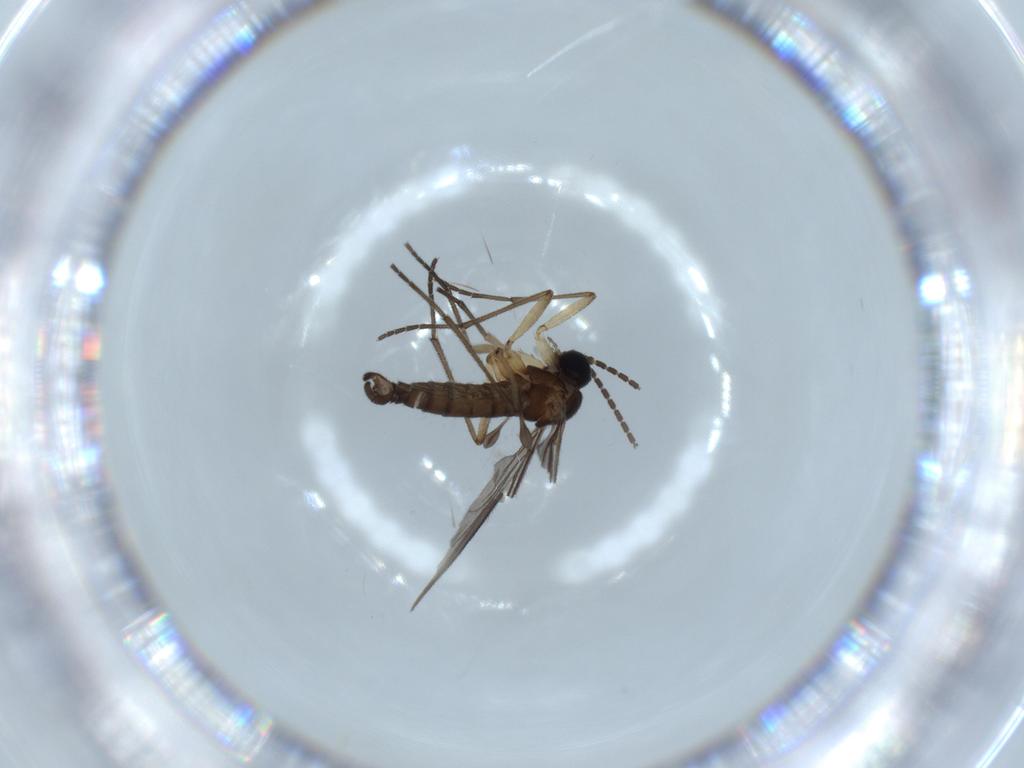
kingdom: Animalia
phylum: Arthropoda
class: Insecta
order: Diptera
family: Sciaridae
